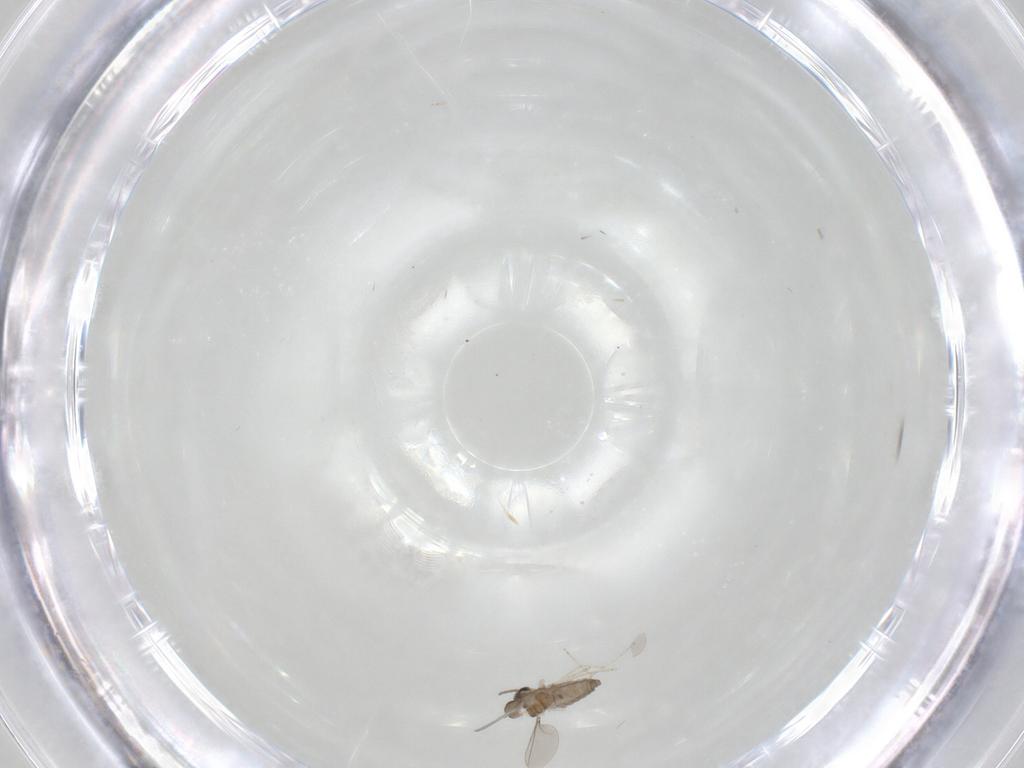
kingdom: Animalia
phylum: Arthropoda
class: Insecta
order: Diptera
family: Cecidomyiidae
